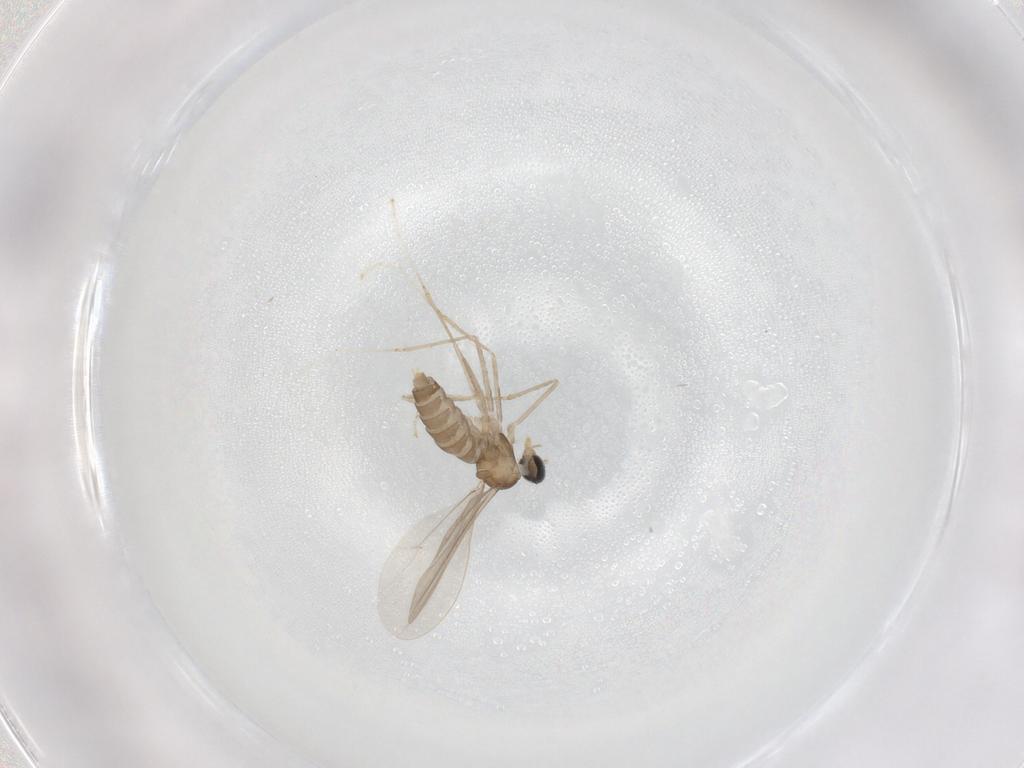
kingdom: Animalia
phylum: Arthropoda
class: Insecta
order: Diptera
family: Cecidomyiidae
